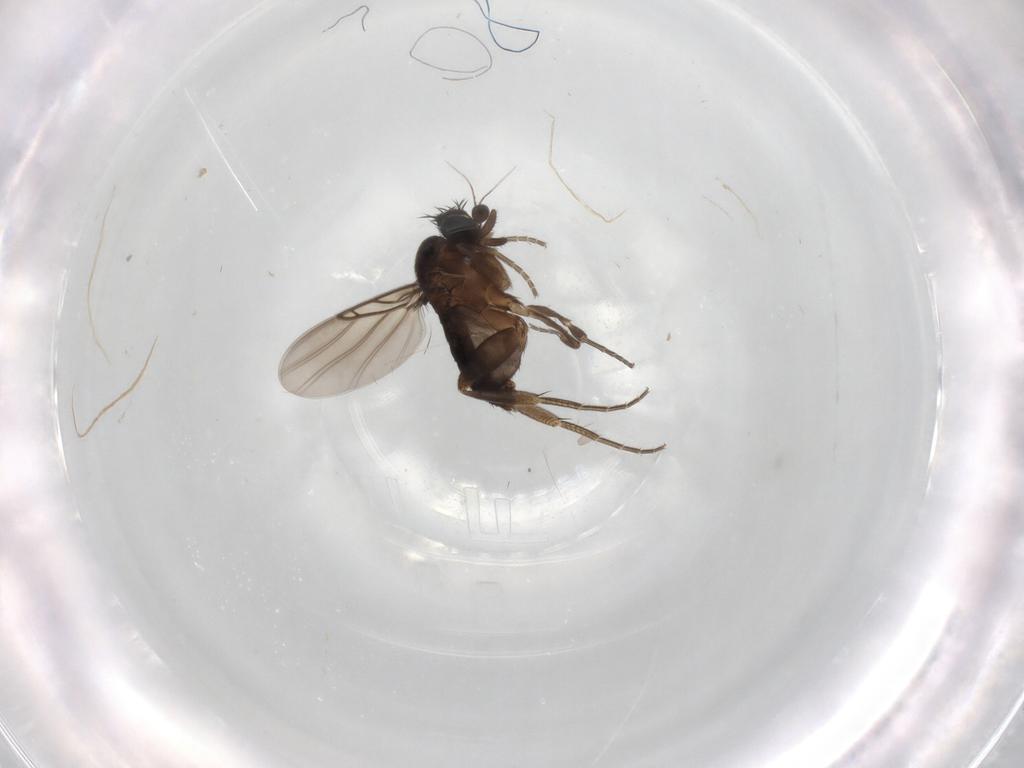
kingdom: Animalia
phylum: Arthropoda
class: Insecta
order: Diptera
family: Phoridae
